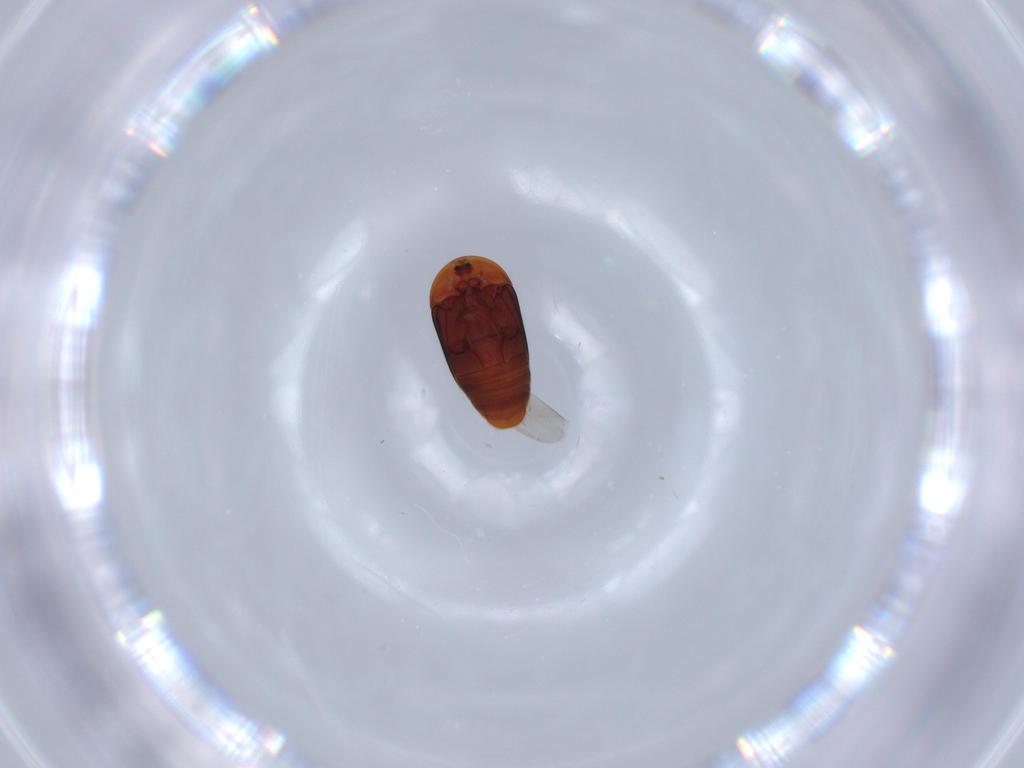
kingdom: Animalia
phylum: Arthropoda
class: Insecta
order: Coleoptera
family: Corylophidae
